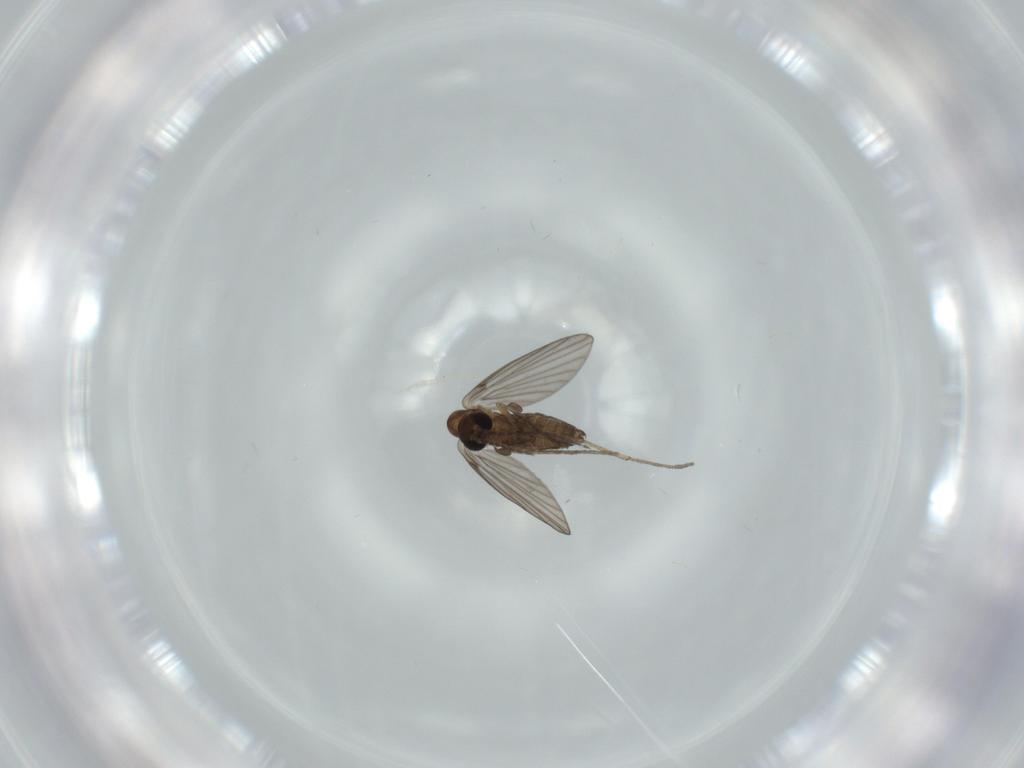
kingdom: Animalia
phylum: Arthropoda
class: Insecta
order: Diptera
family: Psychodidae
